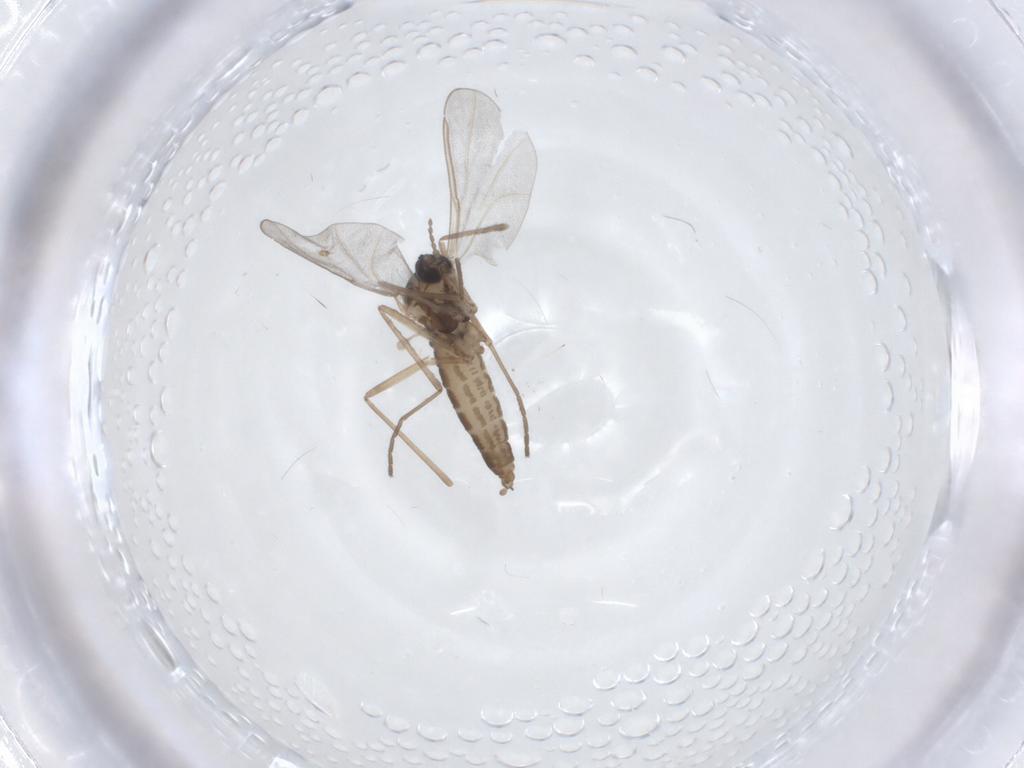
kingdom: Animalia
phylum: Arthropoda
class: Insecta
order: Diptera
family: Cecidomyiidae
